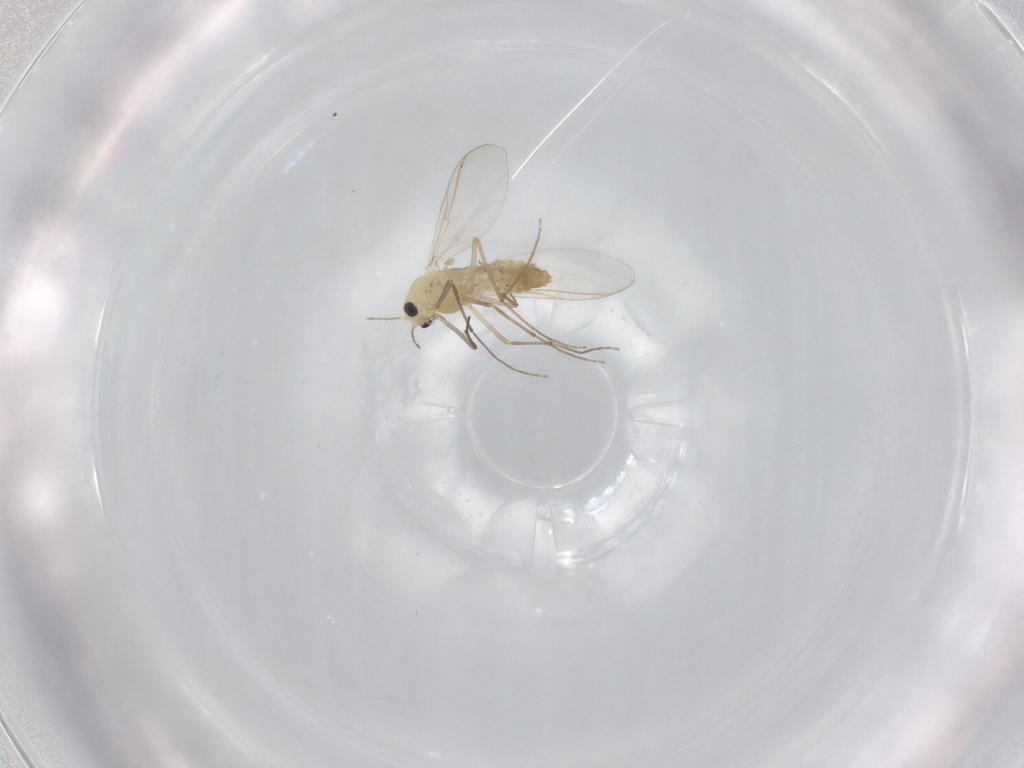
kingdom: Animalia
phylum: Arthropoda
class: Insecta
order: Diptera
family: Chironomidae
